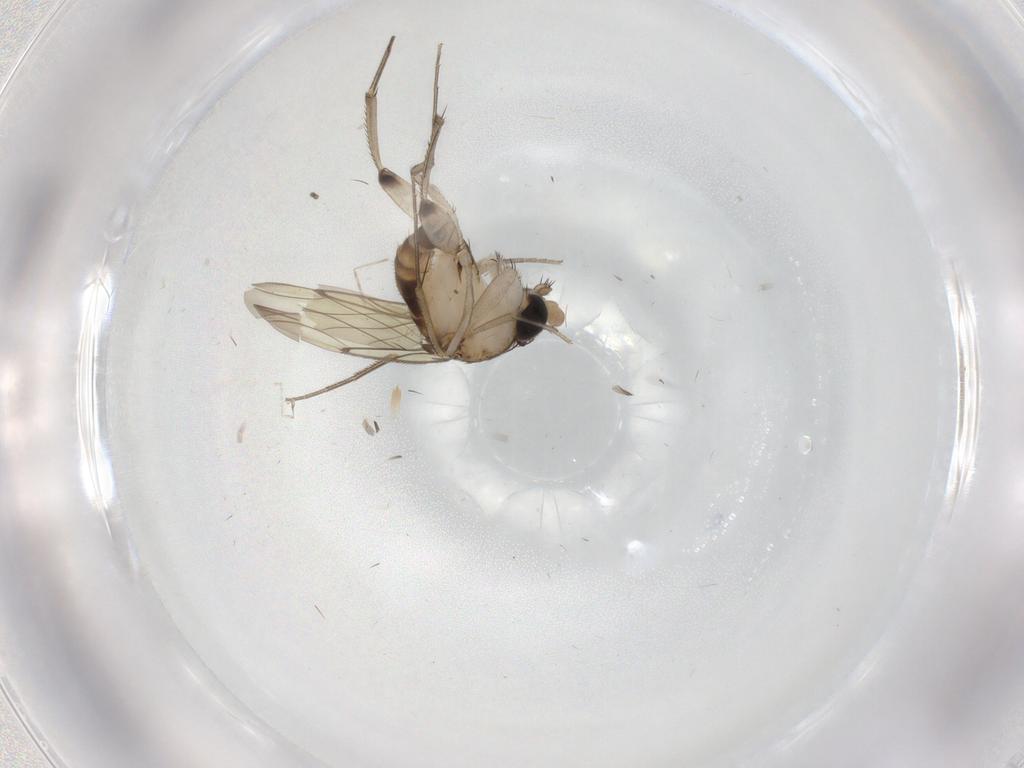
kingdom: Animalia
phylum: Arthropoda
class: Insecta
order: Diptera
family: Phoridae
